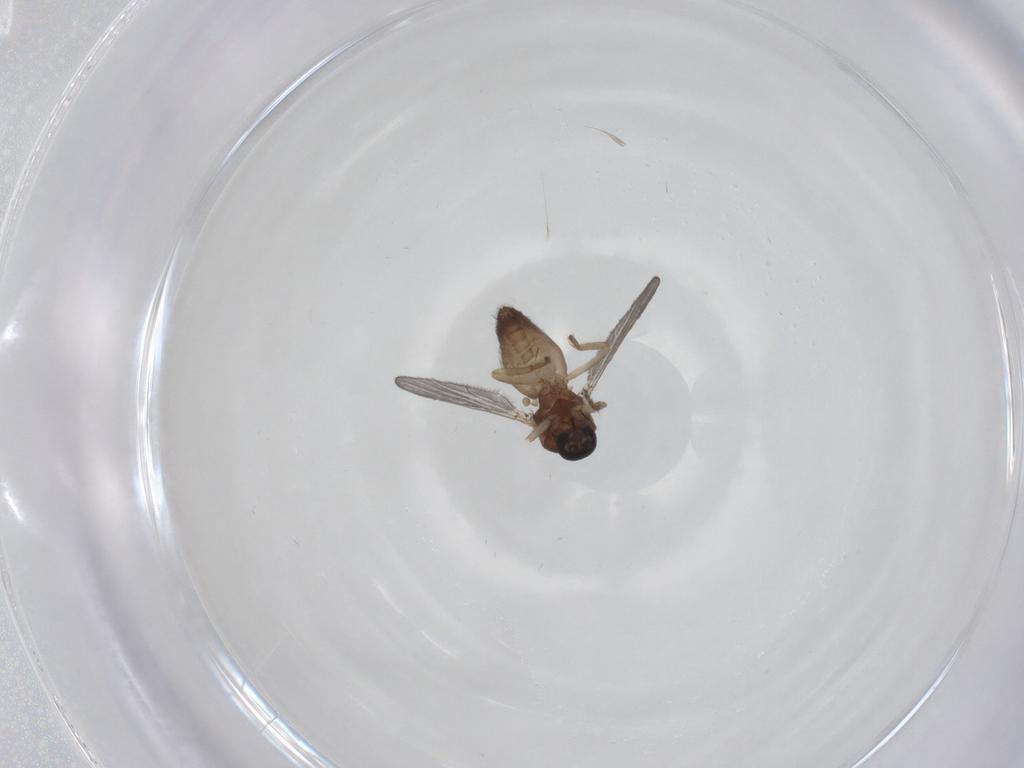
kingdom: Animalia
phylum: Arthropoda
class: Insecta
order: Diptera
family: Ceratopogonidae
